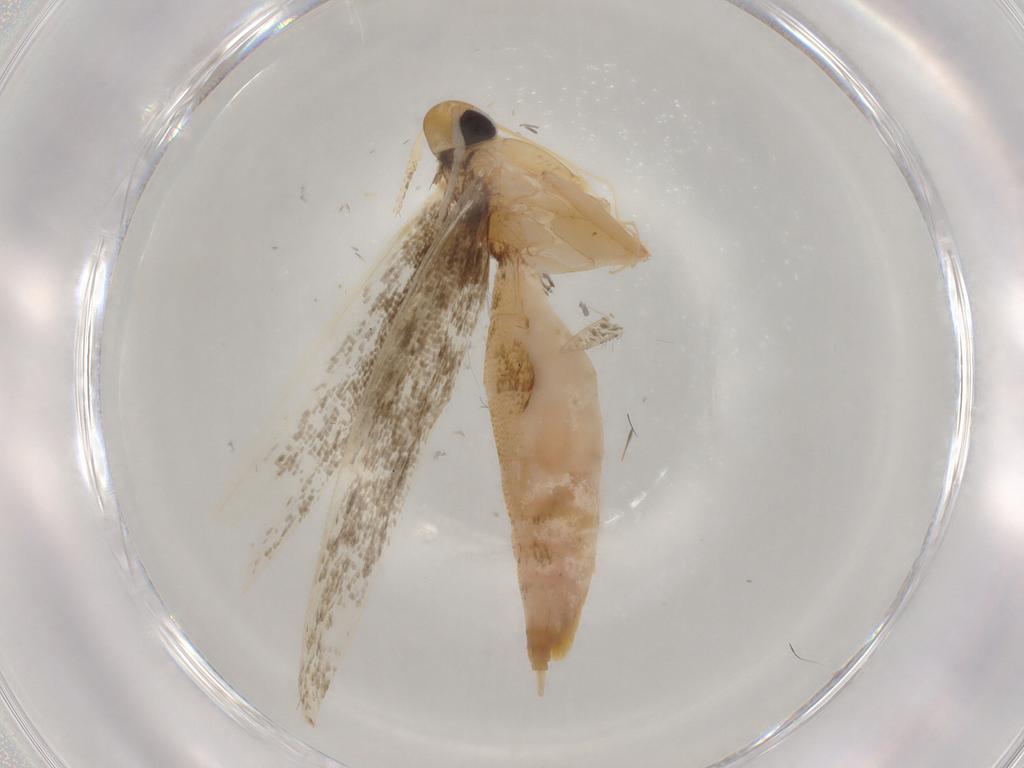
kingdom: Animalia
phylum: Arthropoda
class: Insecta
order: Lepidoptera
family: Pterolonchidae
